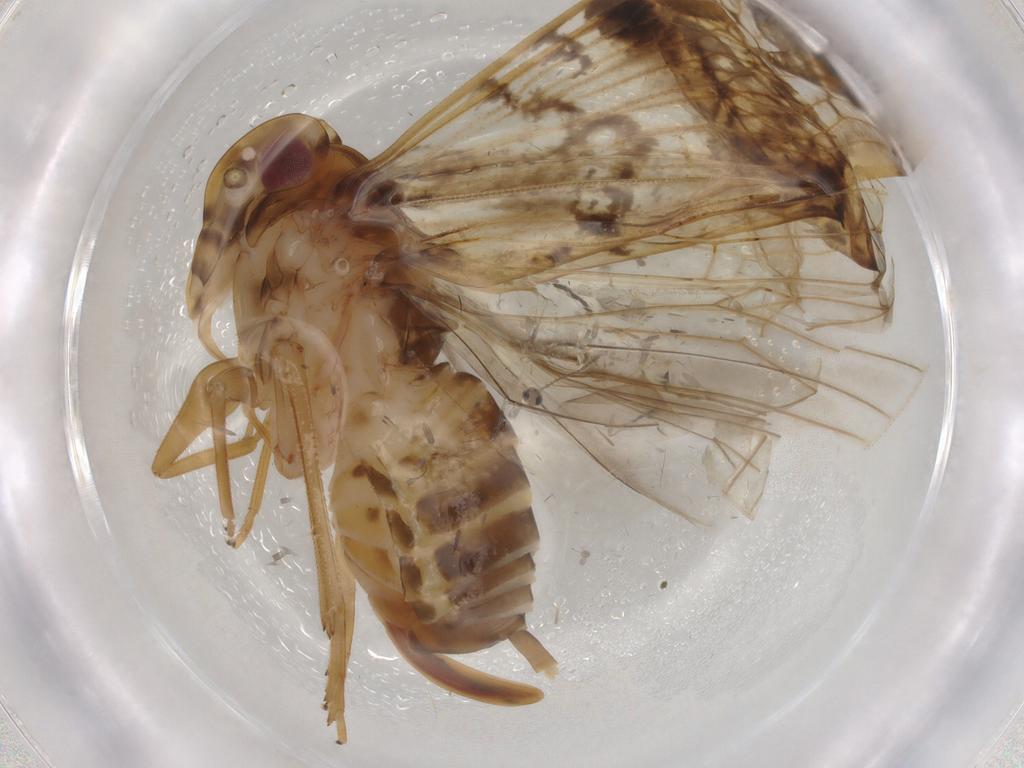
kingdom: Animalia
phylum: Arthropoda
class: Insecta
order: Hemiptera
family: Cixiidae
